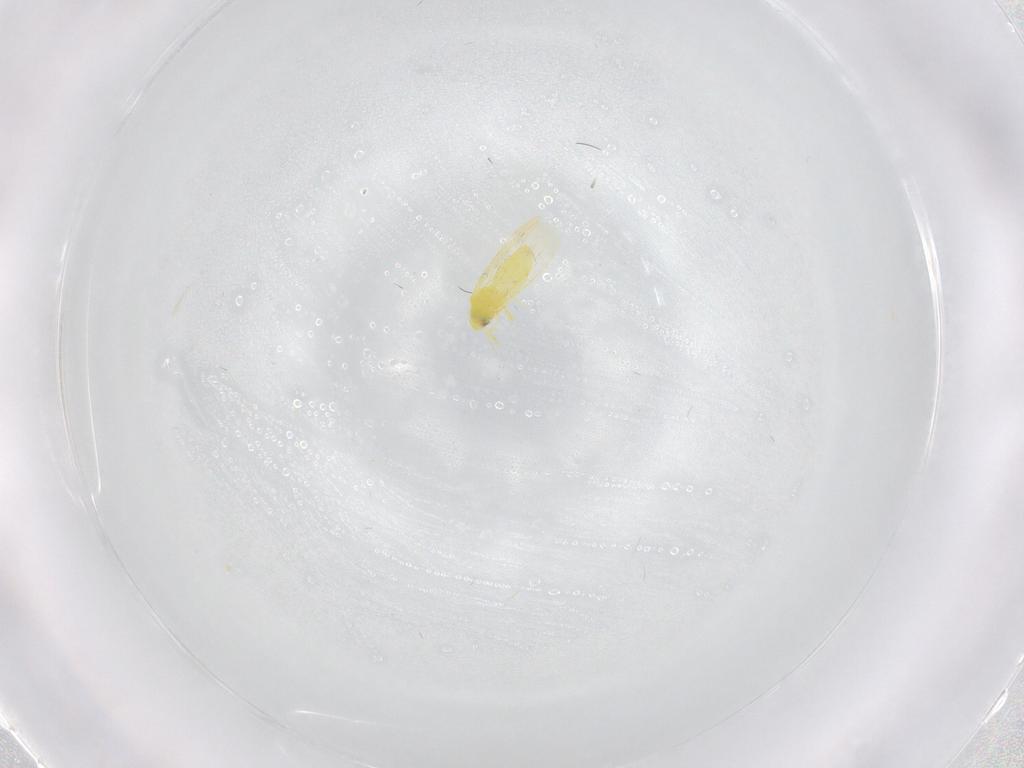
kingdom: Animalia
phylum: Arthropoda
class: Insecta
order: Hemiptera
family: Aleyrodidae
